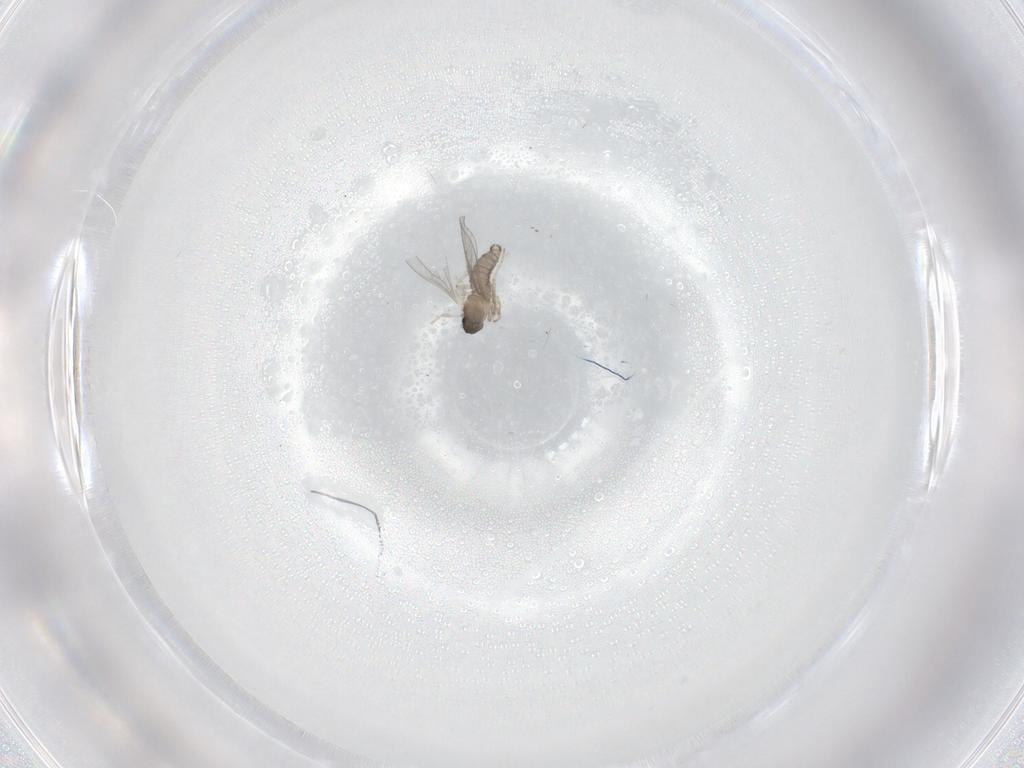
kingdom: Animalia
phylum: Arthropoda
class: Insecta
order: Diptera
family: Cecidomyiidae
